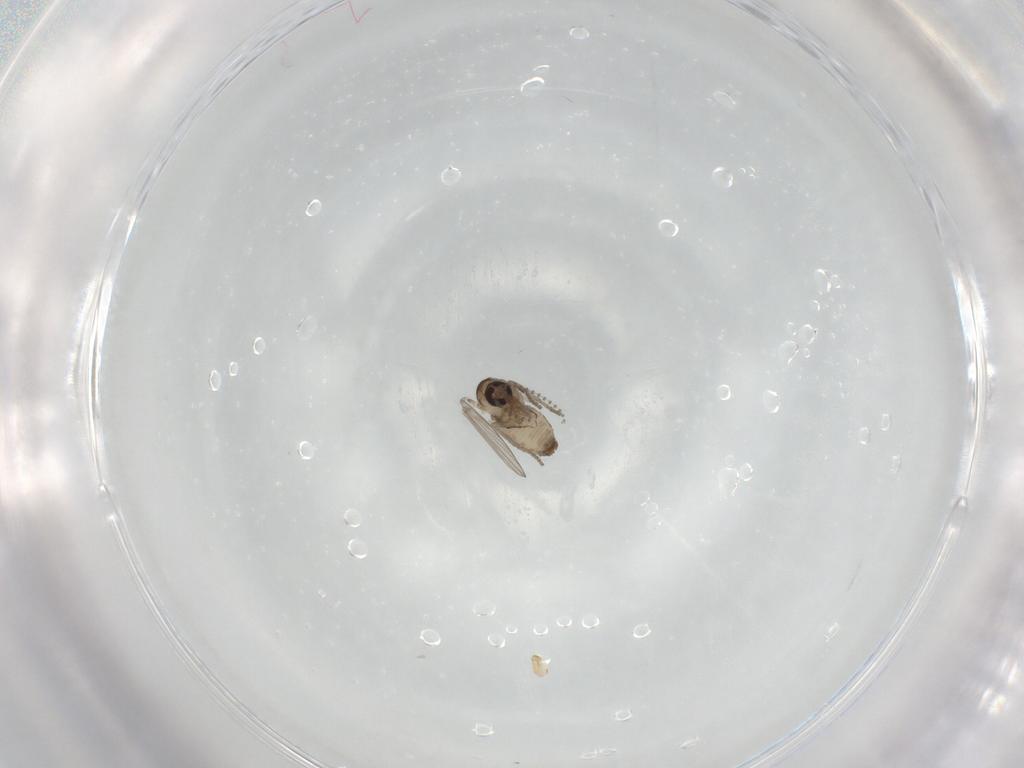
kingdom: Animalia
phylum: Arthropoda
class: Insecta
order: Diptera
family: Psychodidae
